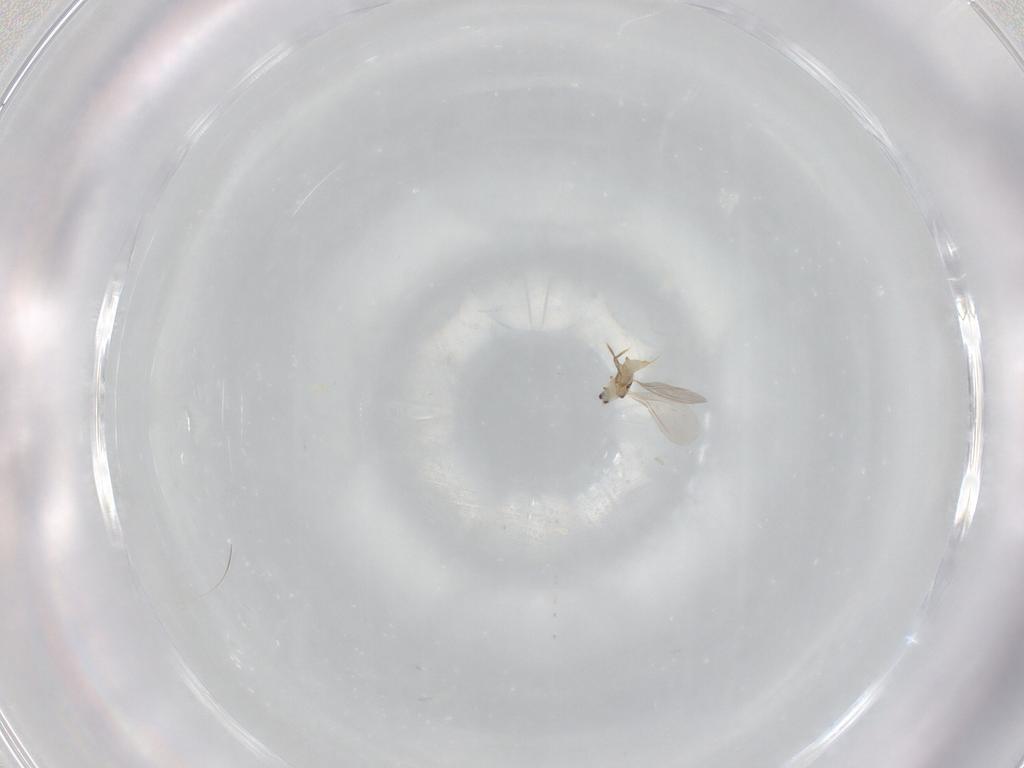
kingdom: Animalia
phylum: Arthropoda
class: Insecta
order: Hemiptera
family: Diaspididae
